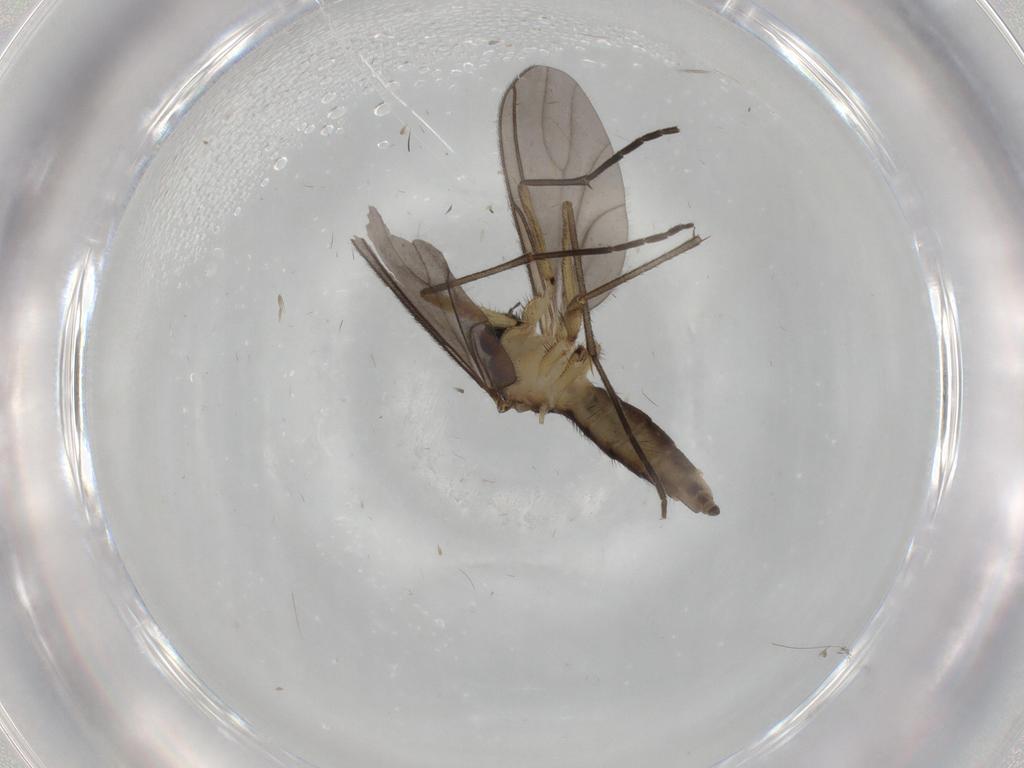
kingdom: Animalia
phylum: Arthropoda
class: Insecta
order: Diptera
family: Sciaridae
